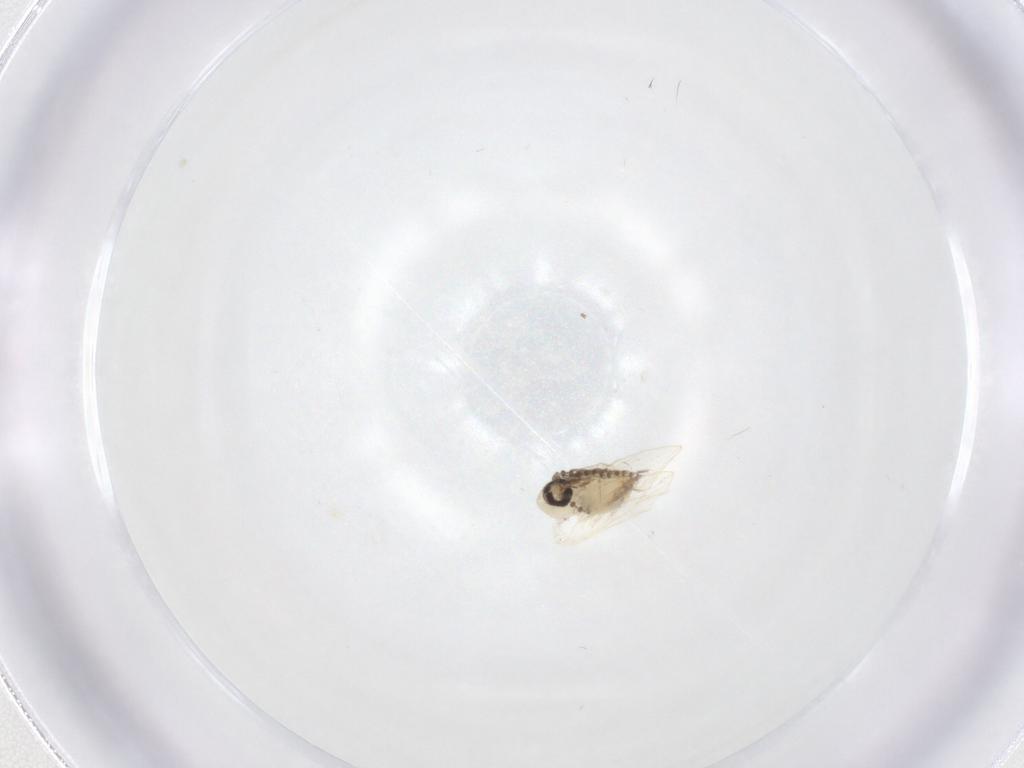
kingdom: Animalia
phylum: Arthropoda
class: Insecta
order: Diptera
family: Psychodidae
